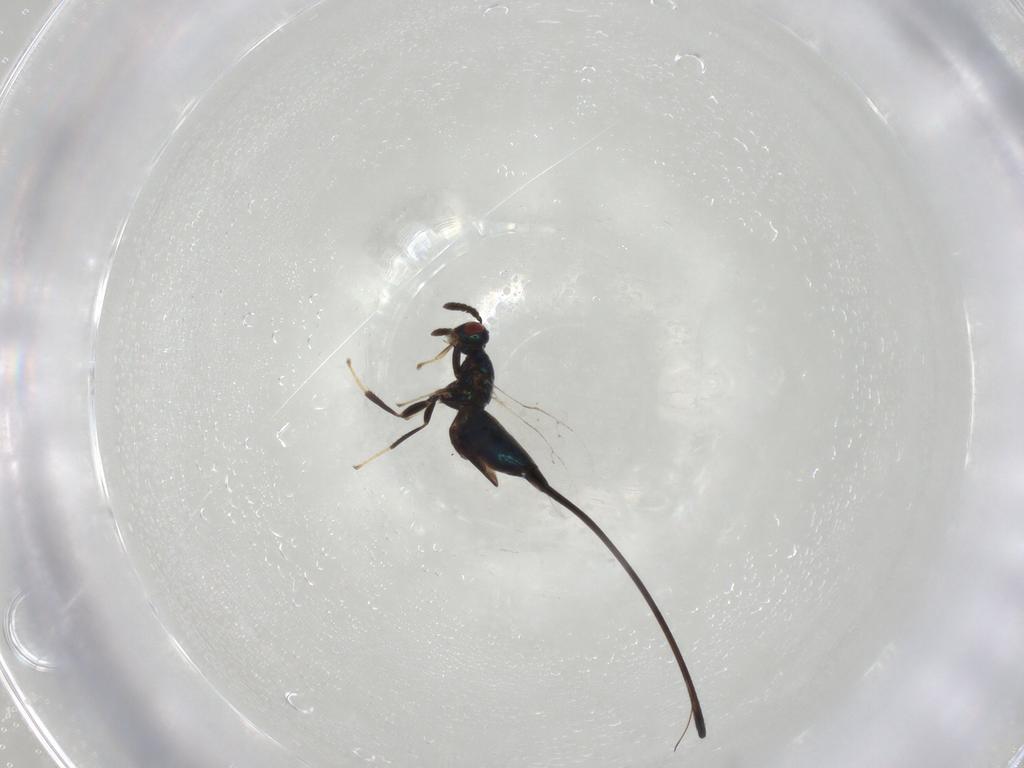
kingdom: Animalia
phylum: Arthropoda
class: Insecta
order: Hymenoptera
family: Pteromalidae
